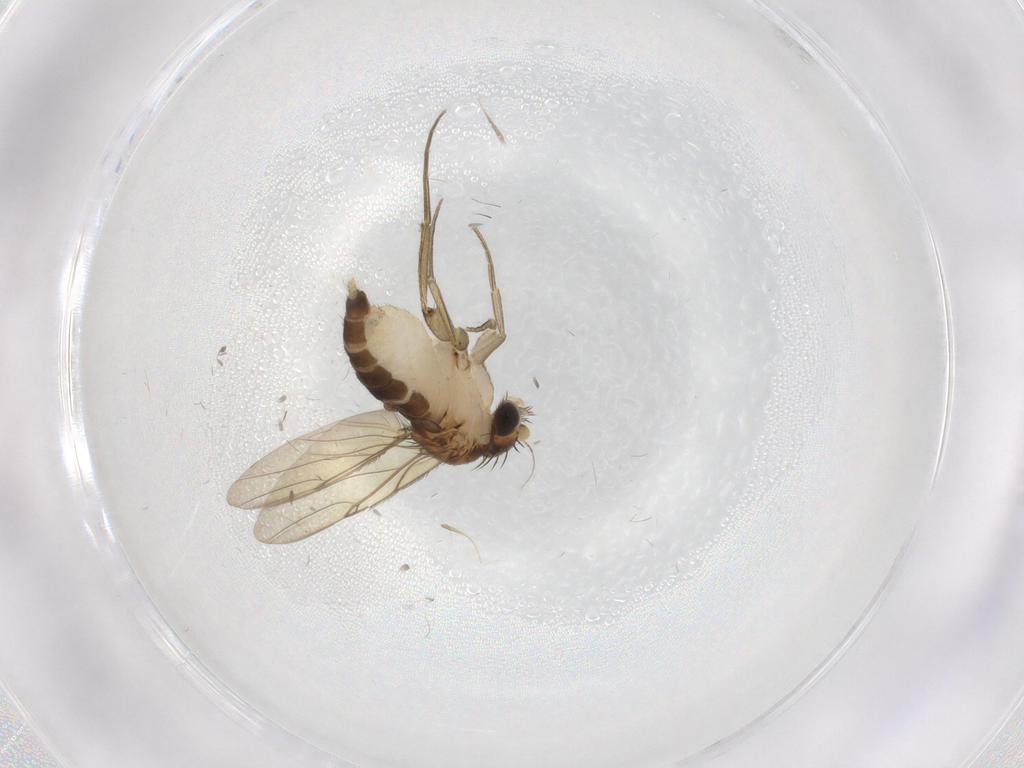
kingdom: Animalia
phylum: Arthropoda
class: Insecta
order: Diptera
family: Phoridae
